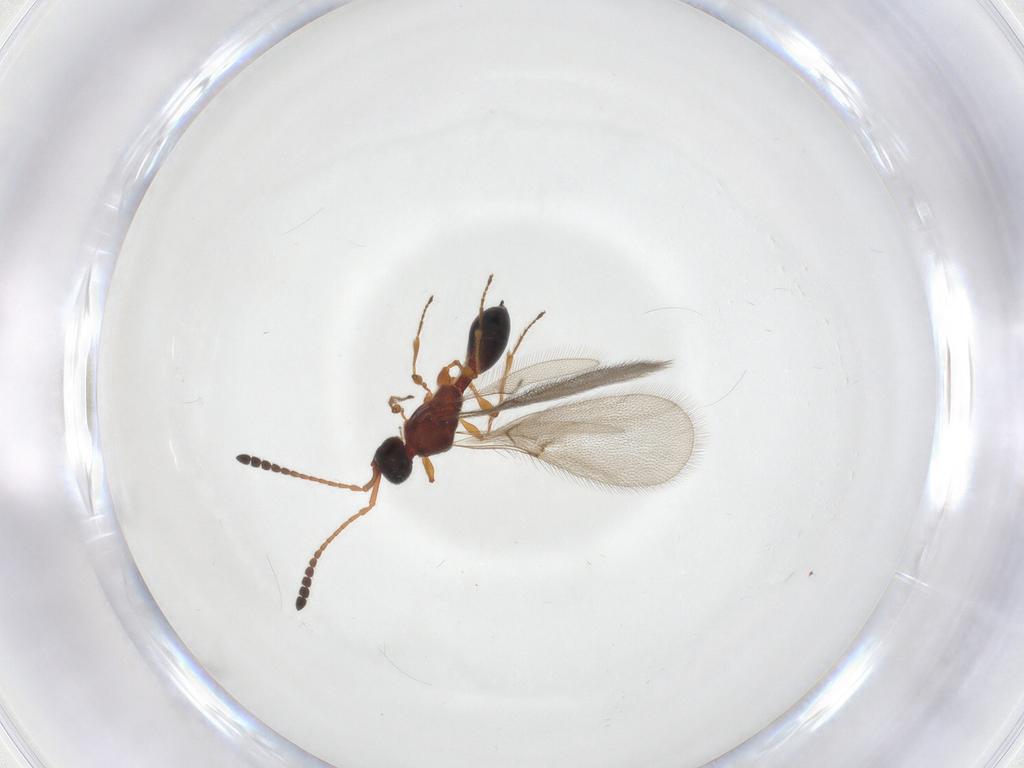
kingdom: Animalia
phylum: Arthropoda
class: Insecta
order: Hymenoptera
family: Diapriidae
